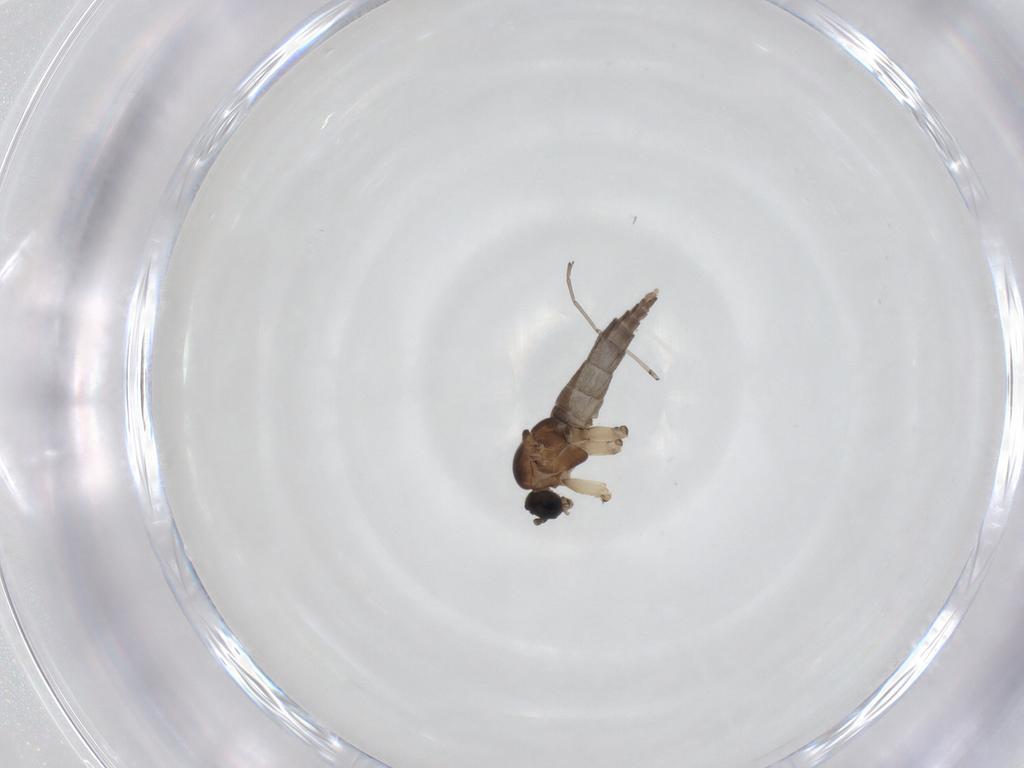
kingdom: Animalia
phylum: Arthropoda
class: Insecta
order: Diptera
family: Sciaridae
